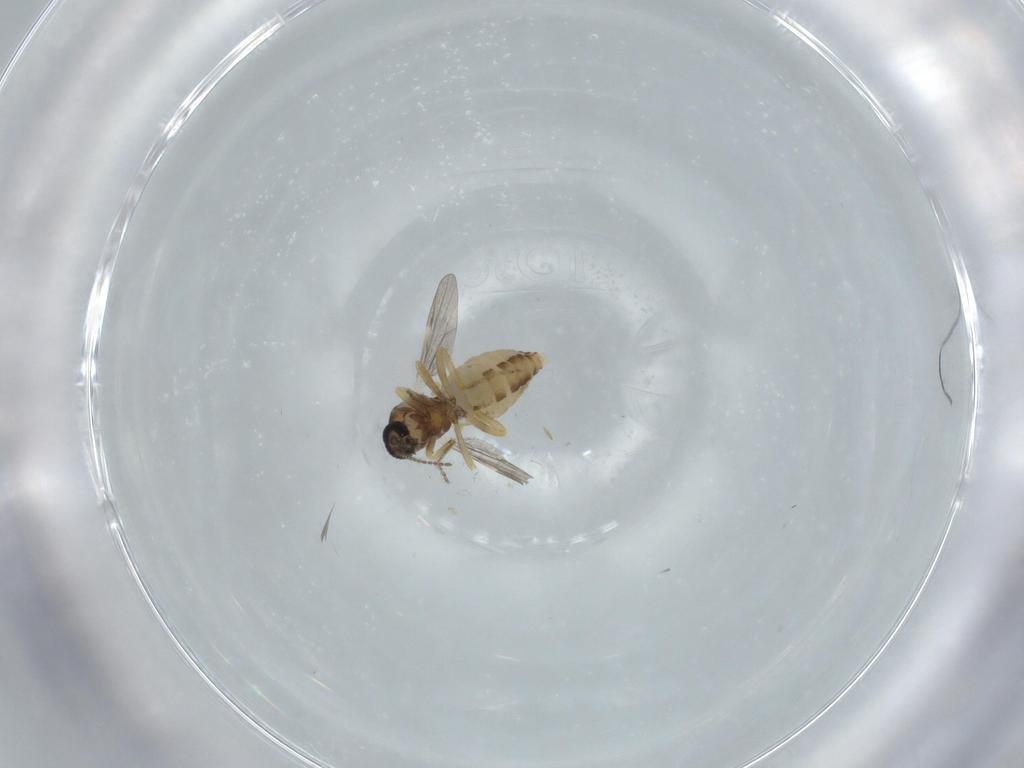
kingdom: Animalia
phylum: Arthropoda
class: Insecta
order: Diptera
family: Ceratopogonidae
